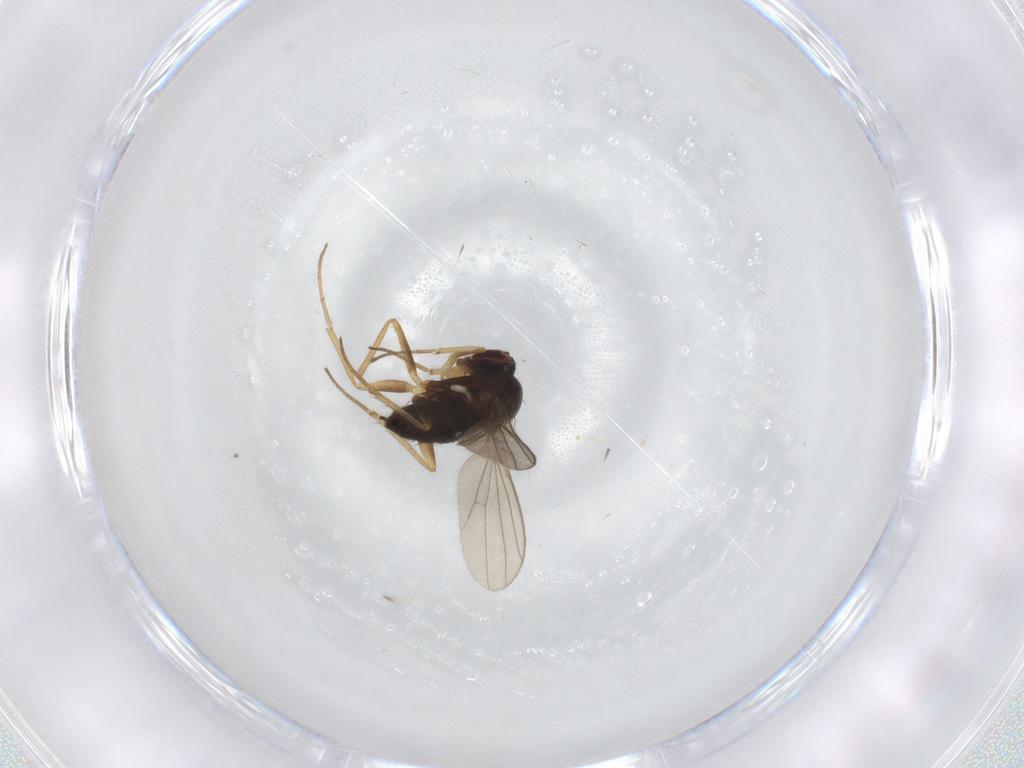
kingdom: Animalia
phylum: Arthropoda
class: Insecta
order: Diptera
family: Dolichopodidae
